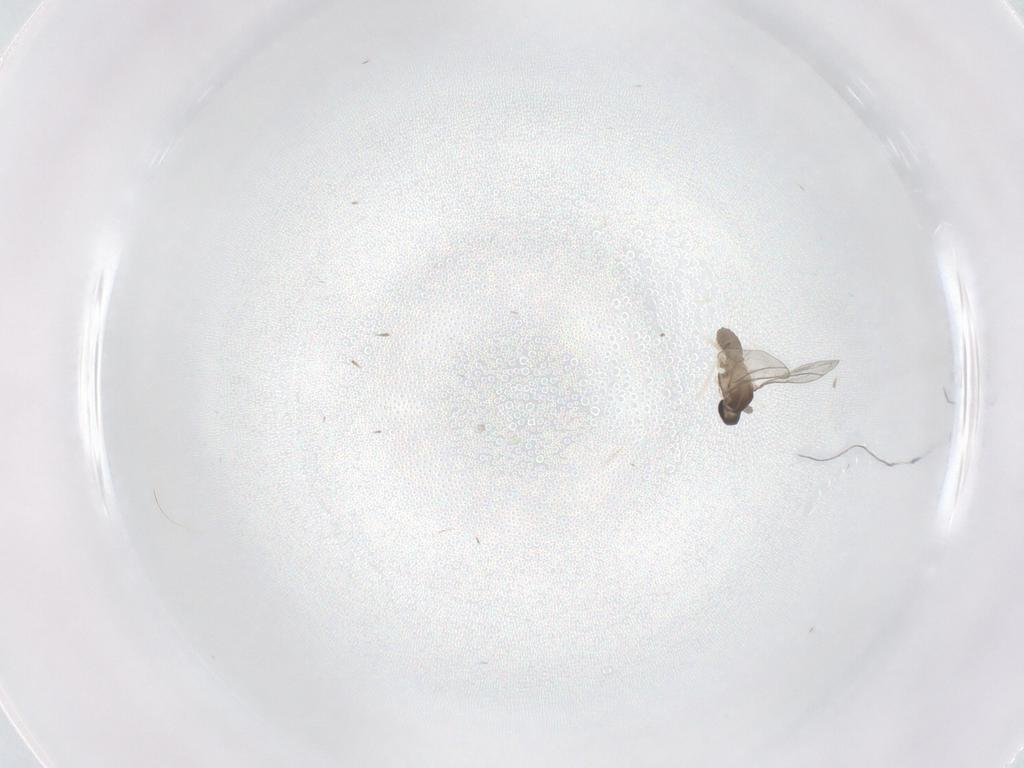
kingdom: Animalia
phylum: Arthropoda
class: Insecta
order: Diptera
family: Cecidomyiidae
